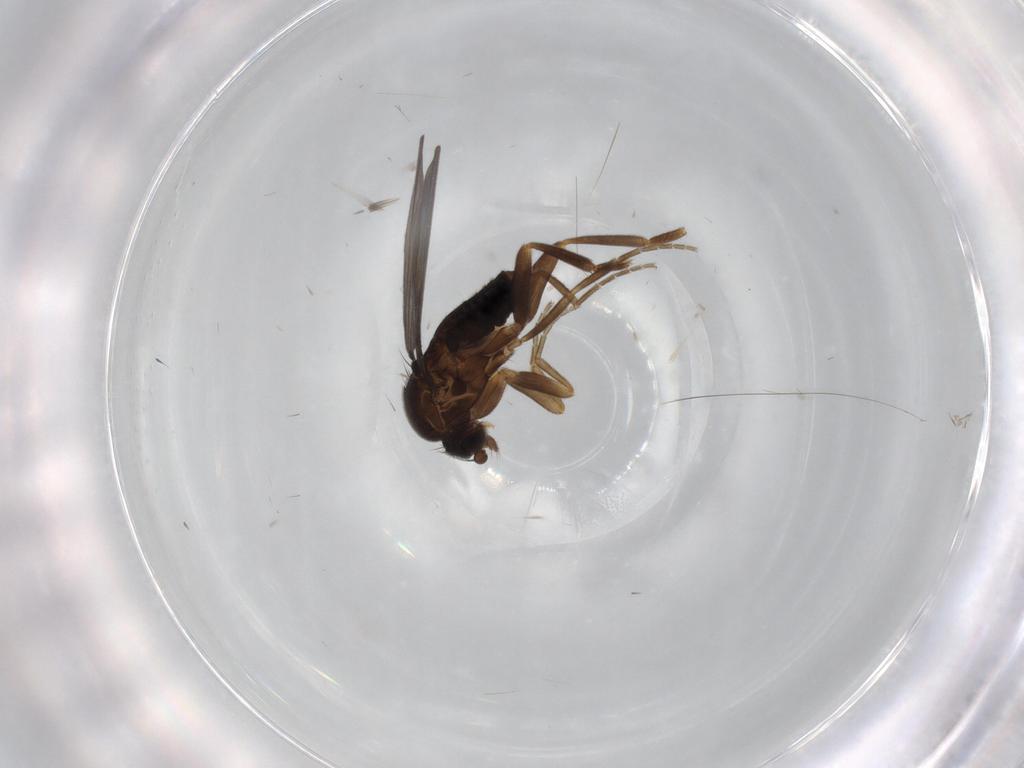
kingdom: Animalia
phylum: Arthropoda
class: Insecta
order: Diptera
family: Phoridae
